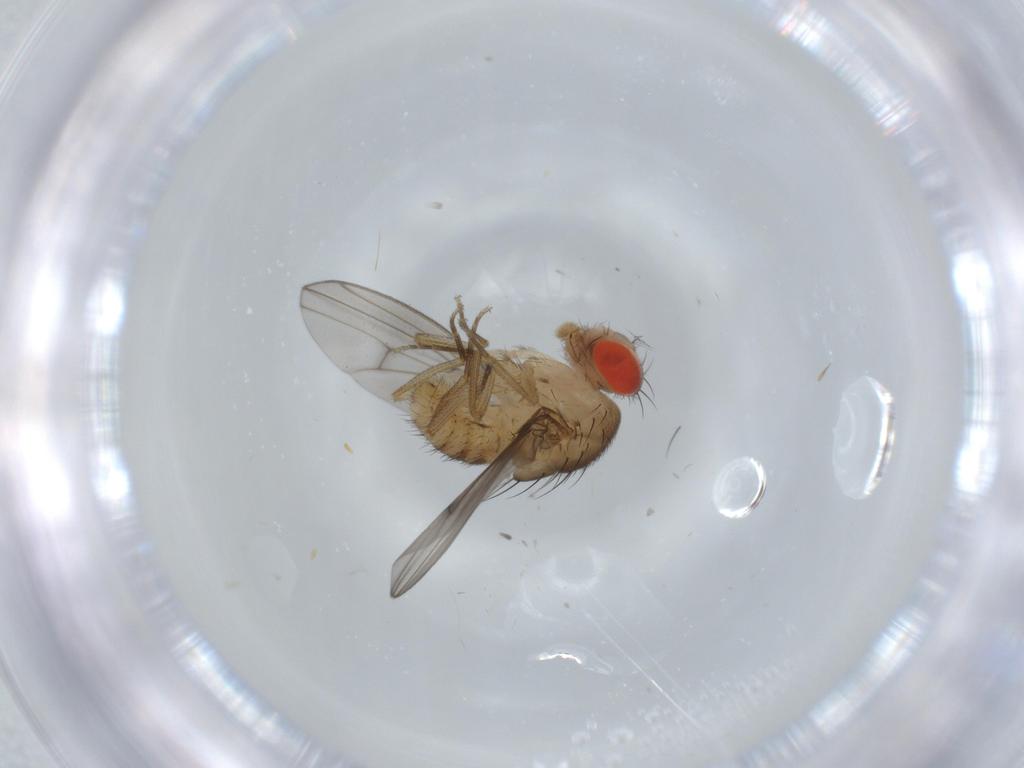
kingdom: Animalia
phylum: Arthropoda
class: Insecta
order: Diptera
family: Drosophilidae
